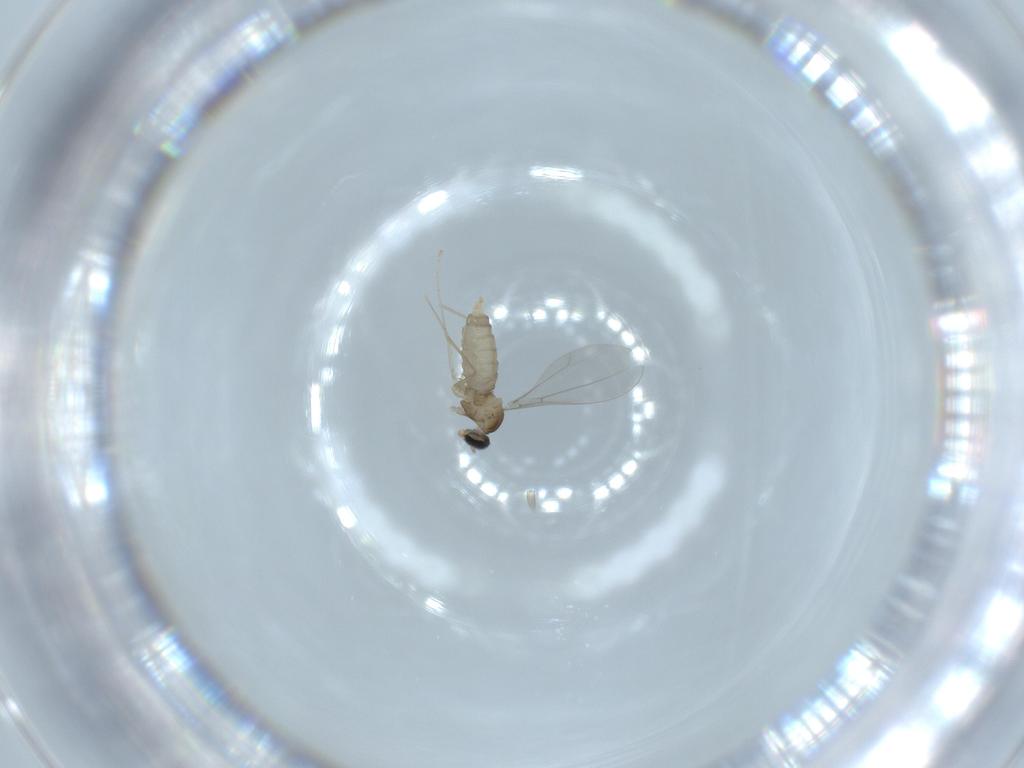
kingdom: Animalia
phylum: Arthropoda
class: Insecta
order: Diptera
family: Cecidomyiidae
